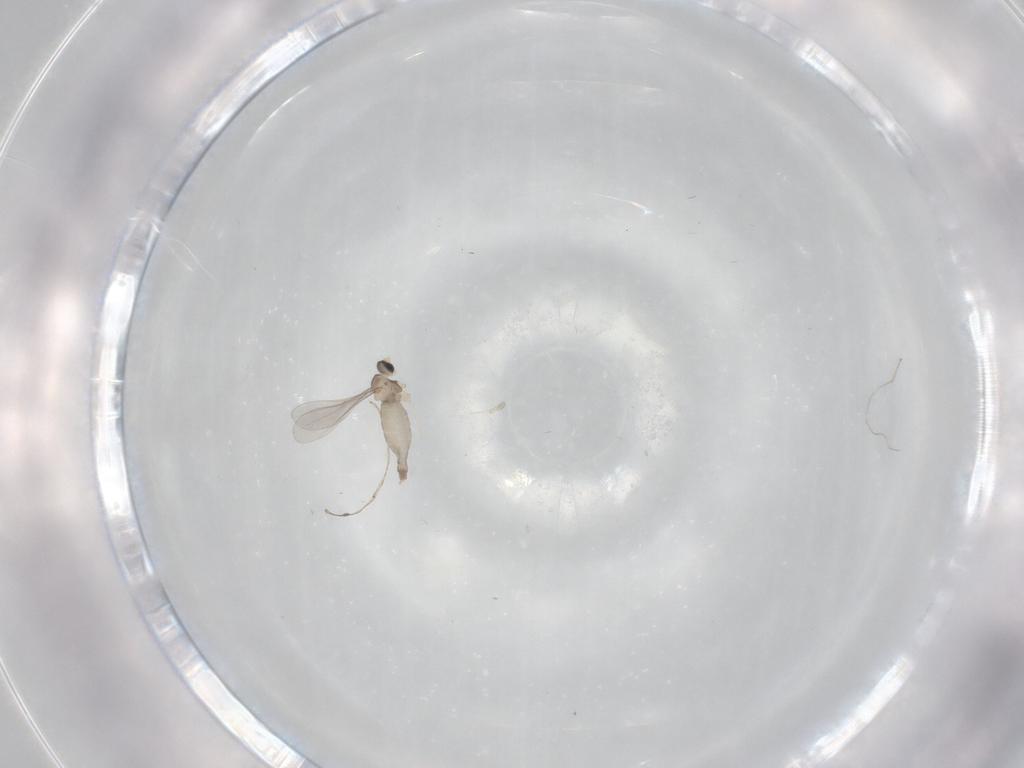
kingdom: Animalia
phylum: Arthropoda
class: Insecta
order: Diptera
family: Cecidomyiidae
